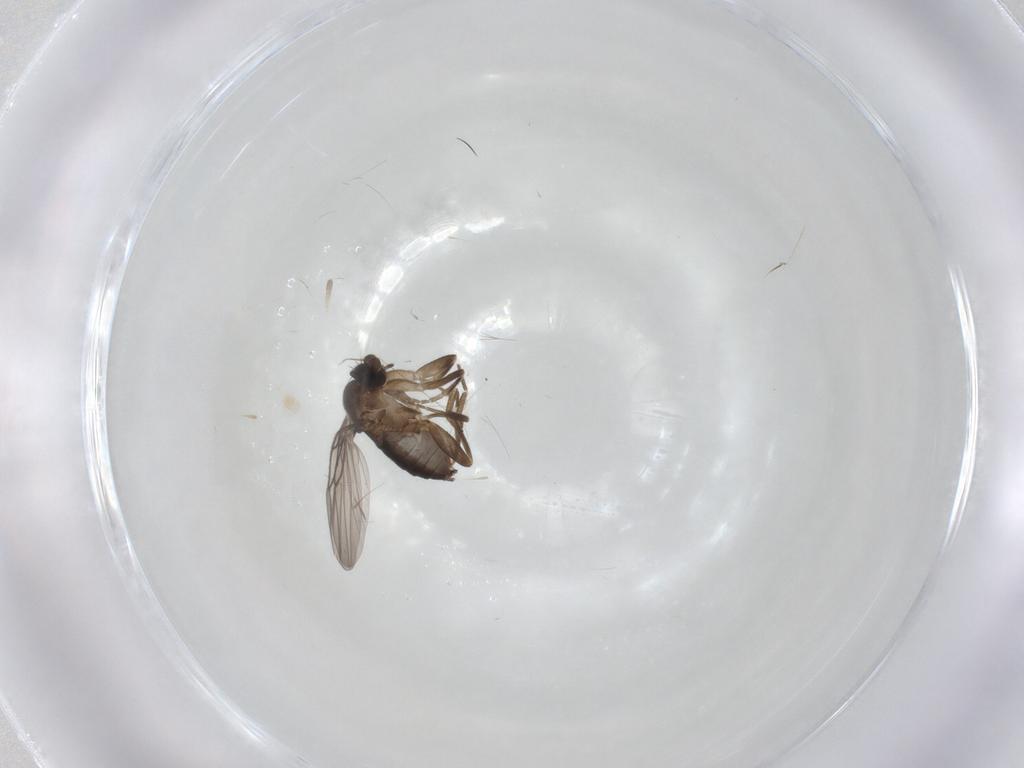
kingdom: Animalia
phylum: Arthropoda
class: Insecta
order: Diptera
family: Phoridae
